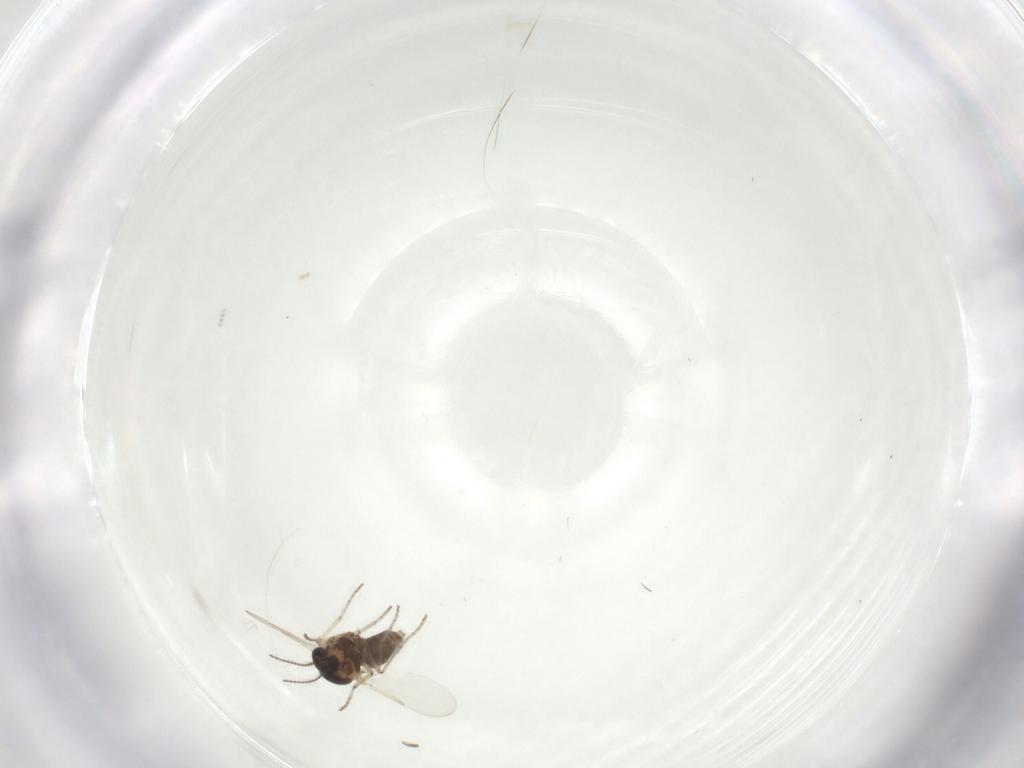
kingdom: Animalia
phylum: Arthropoda
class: Insecta
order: Diptera
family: Ceratopogonidae
